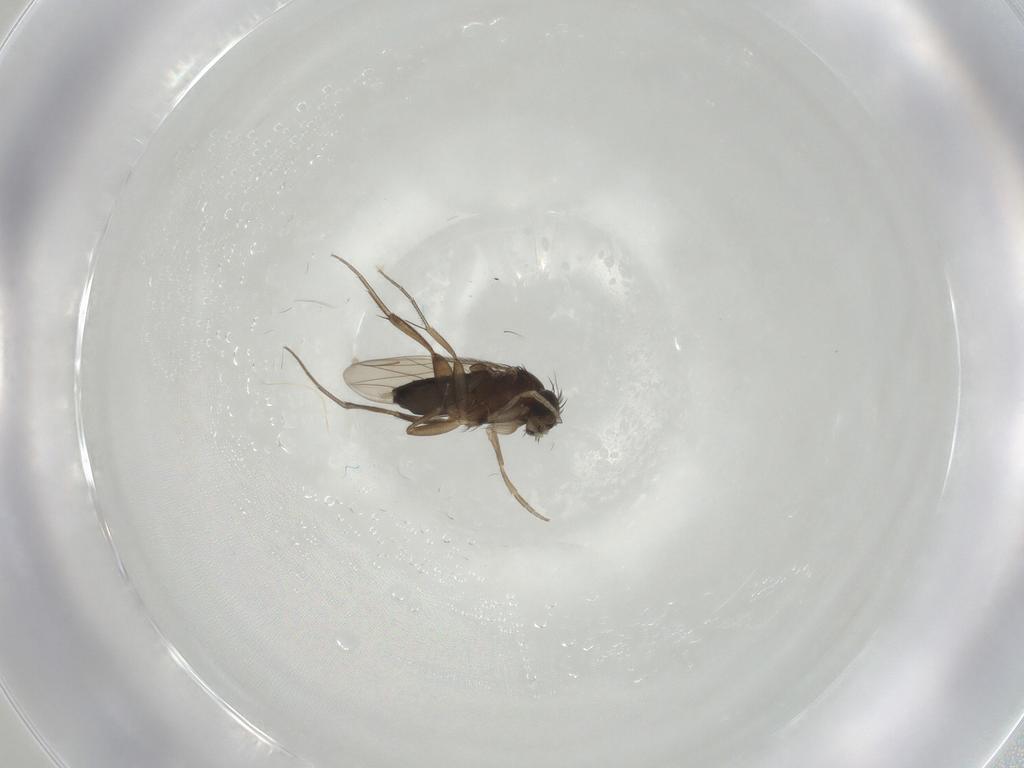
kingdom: Animalia
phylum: Arthropoda
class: Insecta
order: Diptera
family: Phoridae
